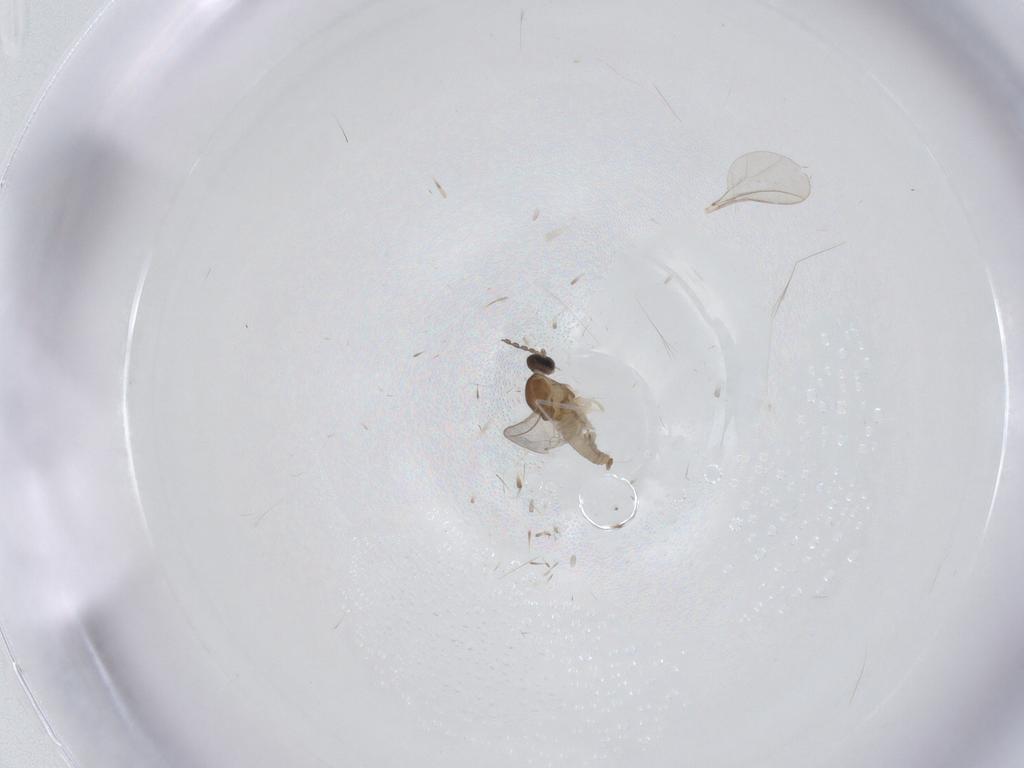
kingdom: Animalia
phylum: Arthropoda
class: Insecta
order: Diptera
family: Cecidomyiidae
